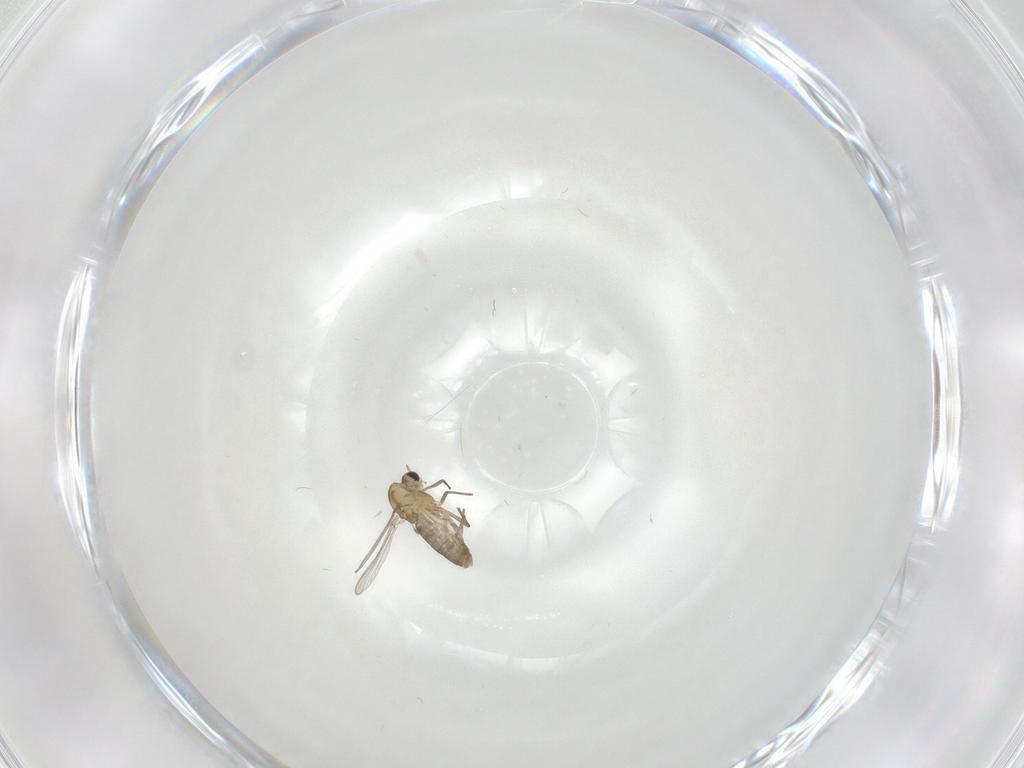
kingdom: Animalia
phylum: Arthropoda
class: Insecta
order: Diptera
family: Chironomidae
